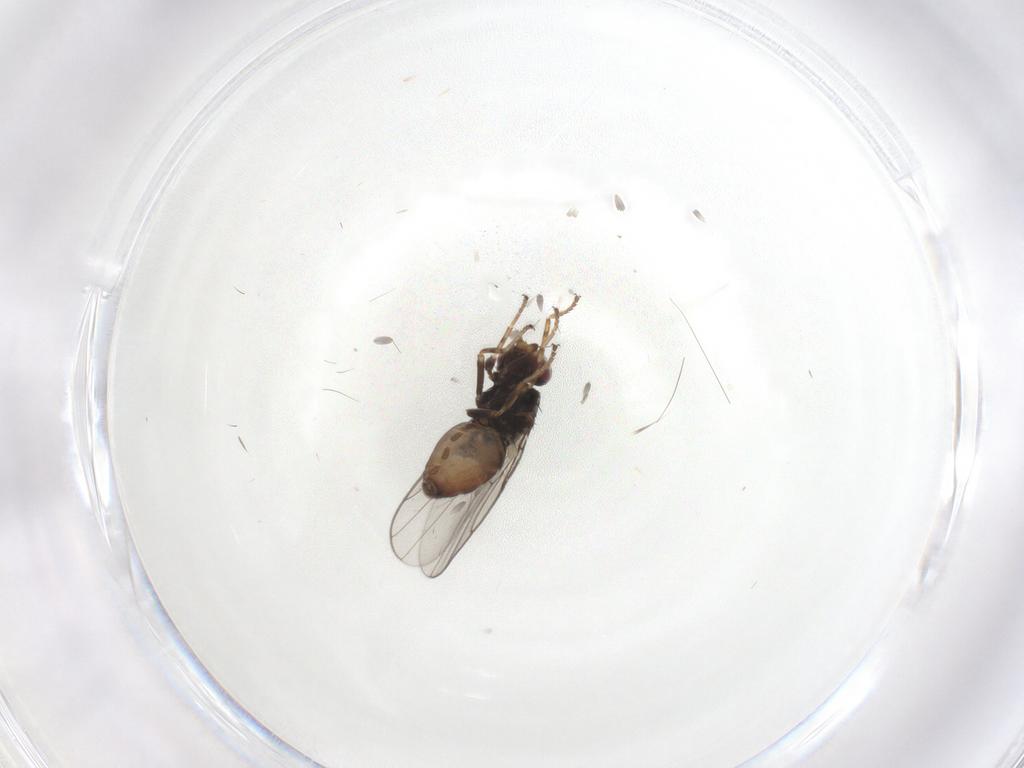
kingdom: Animalia
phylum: Arthropoda
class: Insecta
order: Diptera
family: Chloropidae
